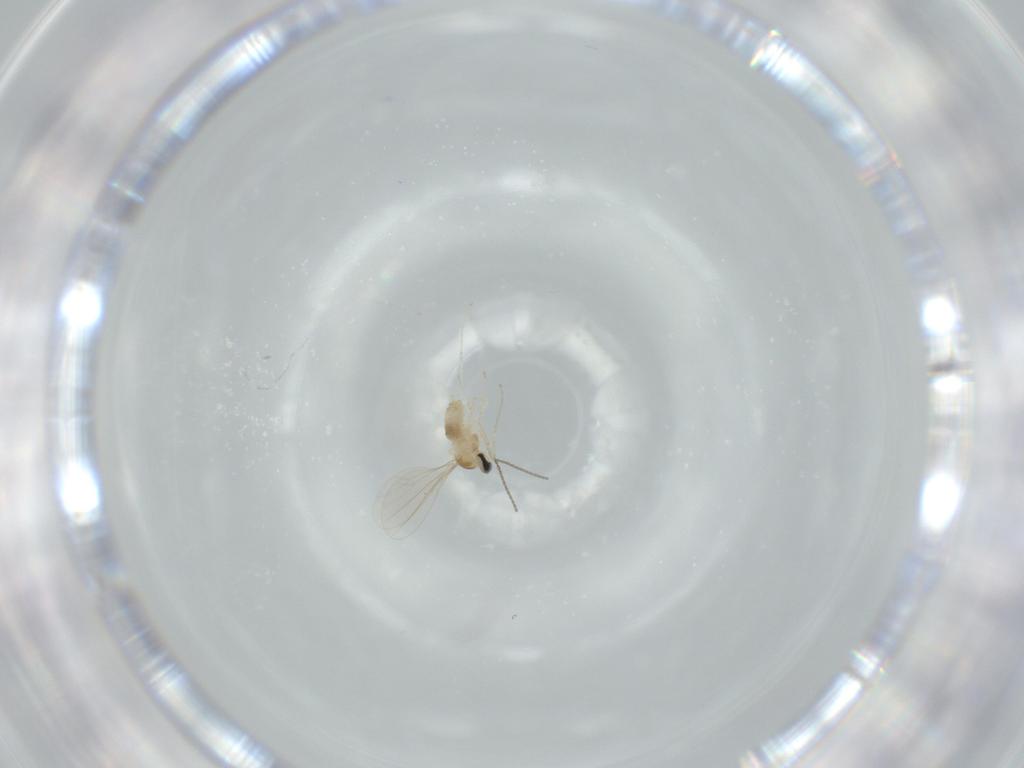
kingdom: Animalia
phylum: Arthropoda
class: Insecta
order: Diptera
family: Cecidomyiidae
